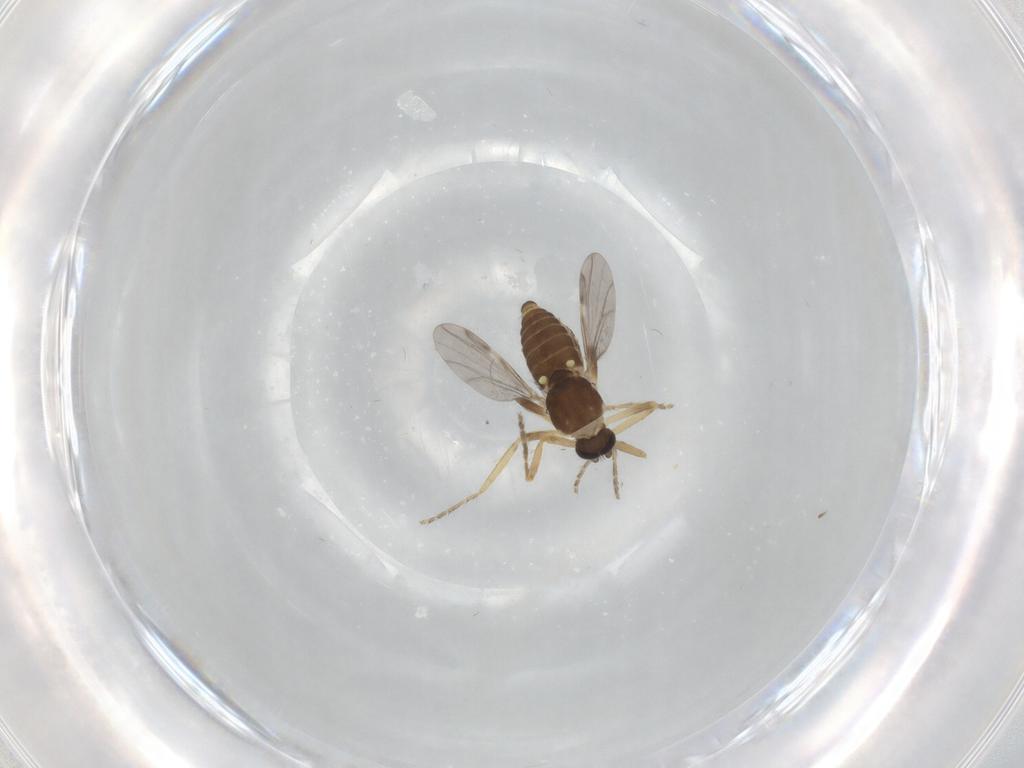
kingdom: Animalia
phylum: Arthropoda
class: Insecta
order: Diptera
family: Ceratopogonidae
